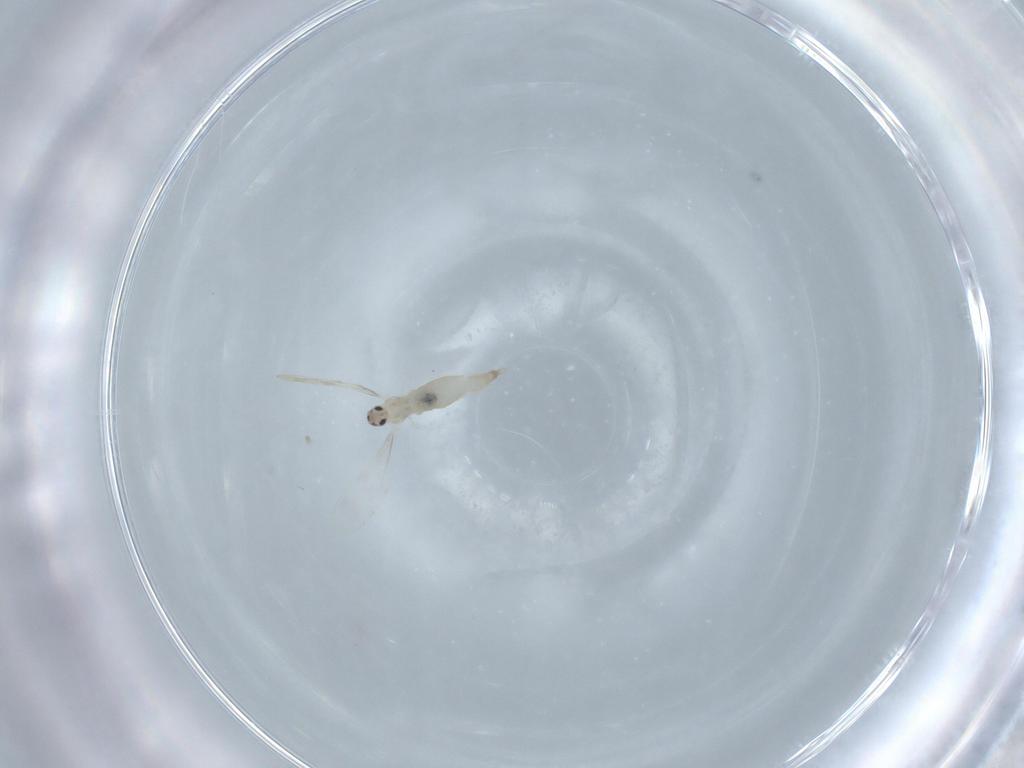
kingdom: Animalia
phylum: Arthropoda
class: Insecta
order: Diptera
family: Cecidomyiidae
